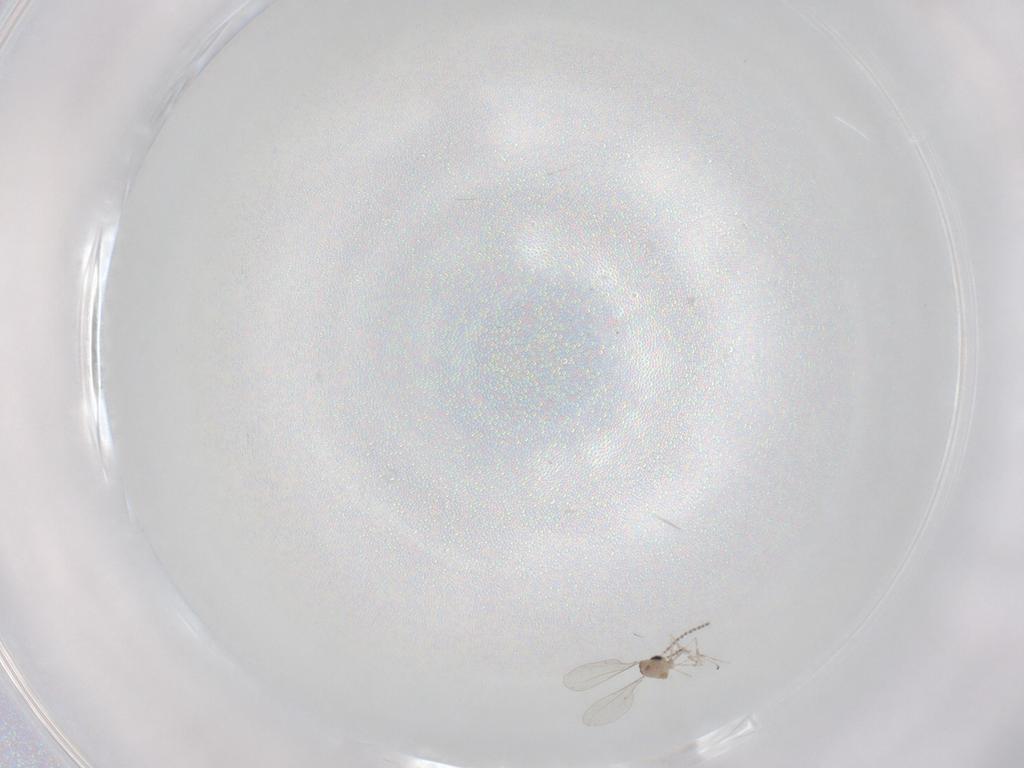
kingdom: Animalia
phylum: Arthropoda
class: Insecta
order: Diptera
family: Cecidomyiidae
